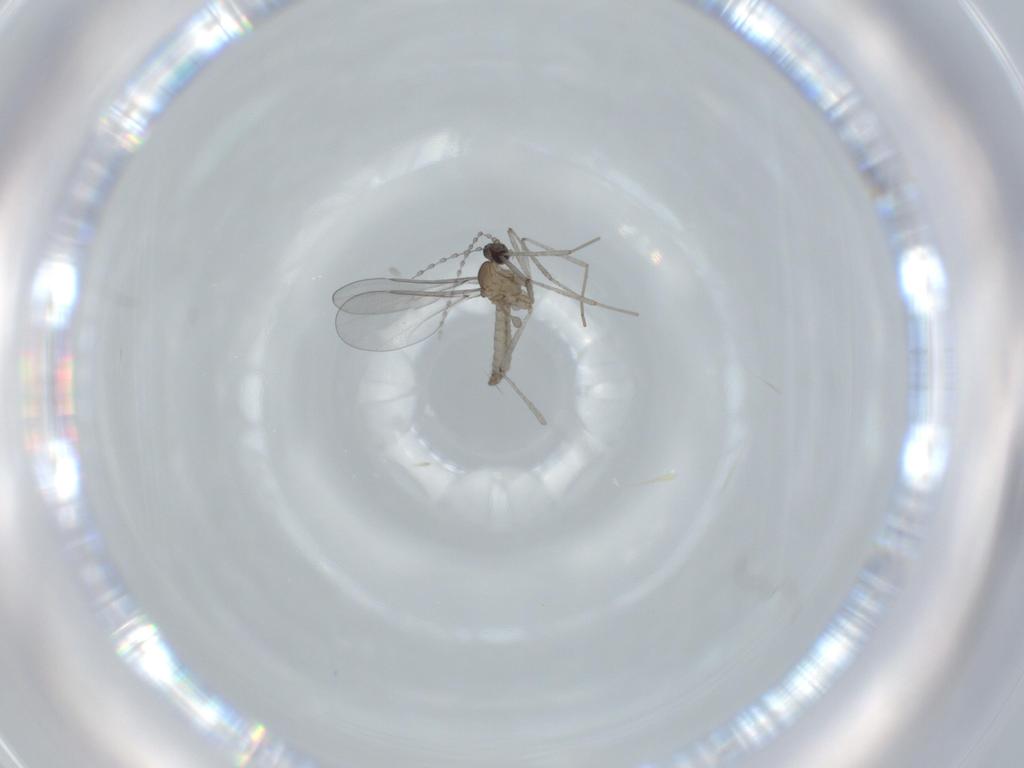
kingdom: Animalia
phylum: Arthropoda
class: Insecta
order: Diptera
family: Cecidomyiidae
